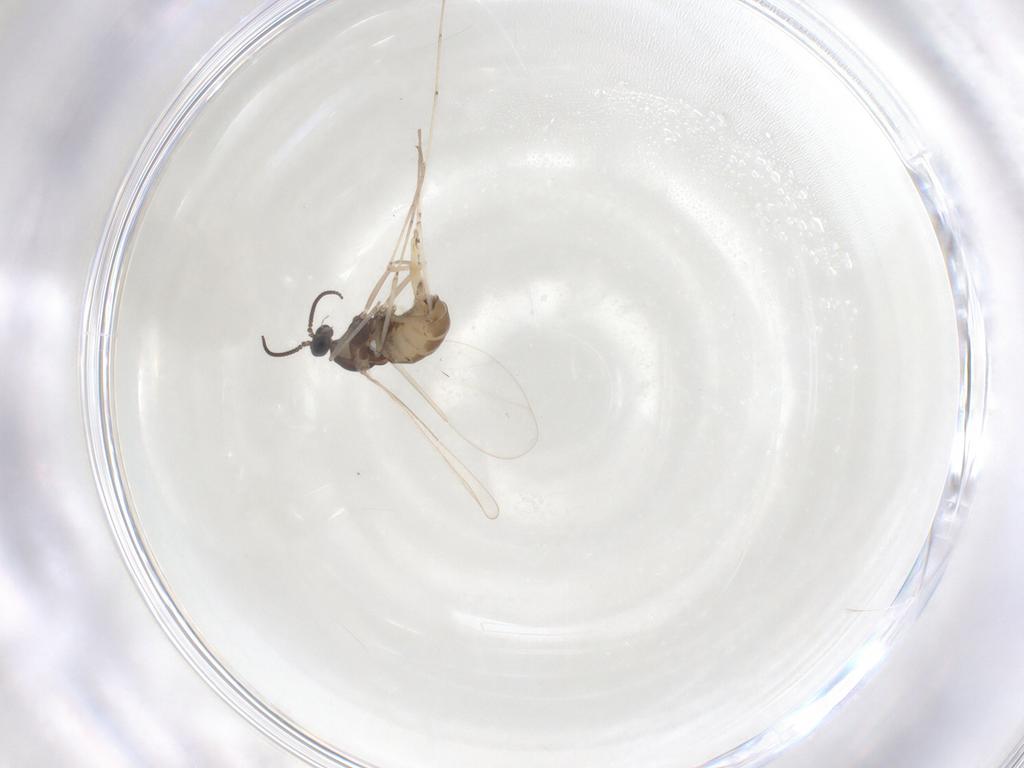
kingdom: Animalia
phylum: Arthropoda
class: Insecta
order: Diptera
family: Cecidomyiidae
